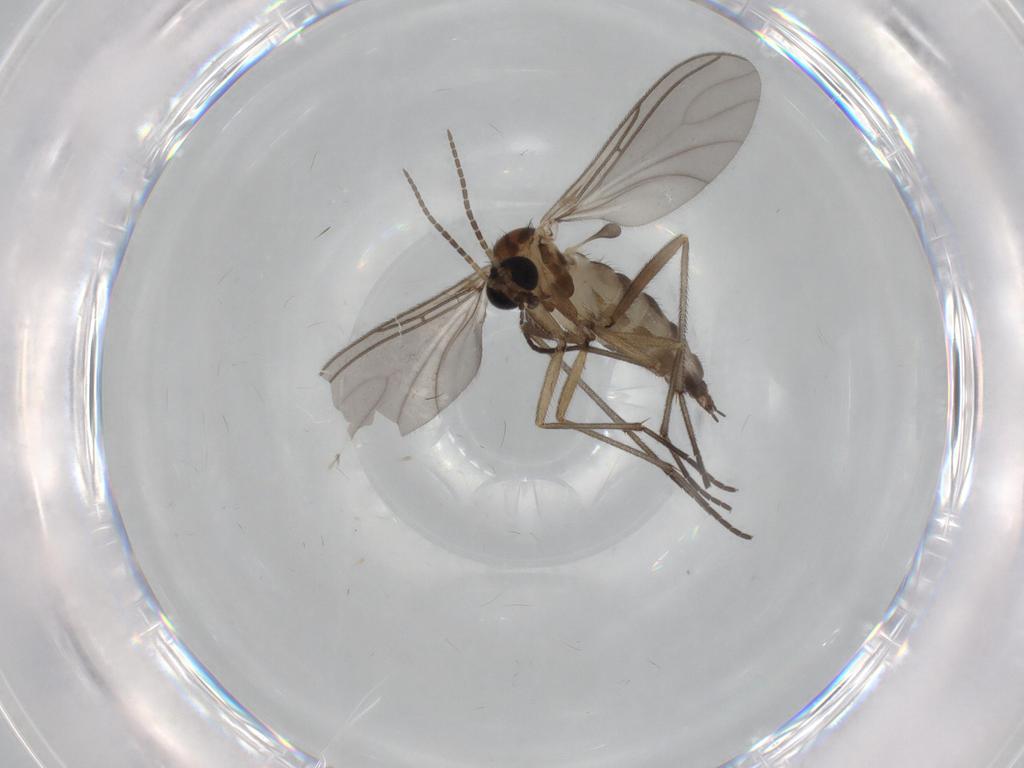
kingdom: Animalia
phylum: Arthropoda
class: Insecta
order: Diptera
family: Sciaridae
